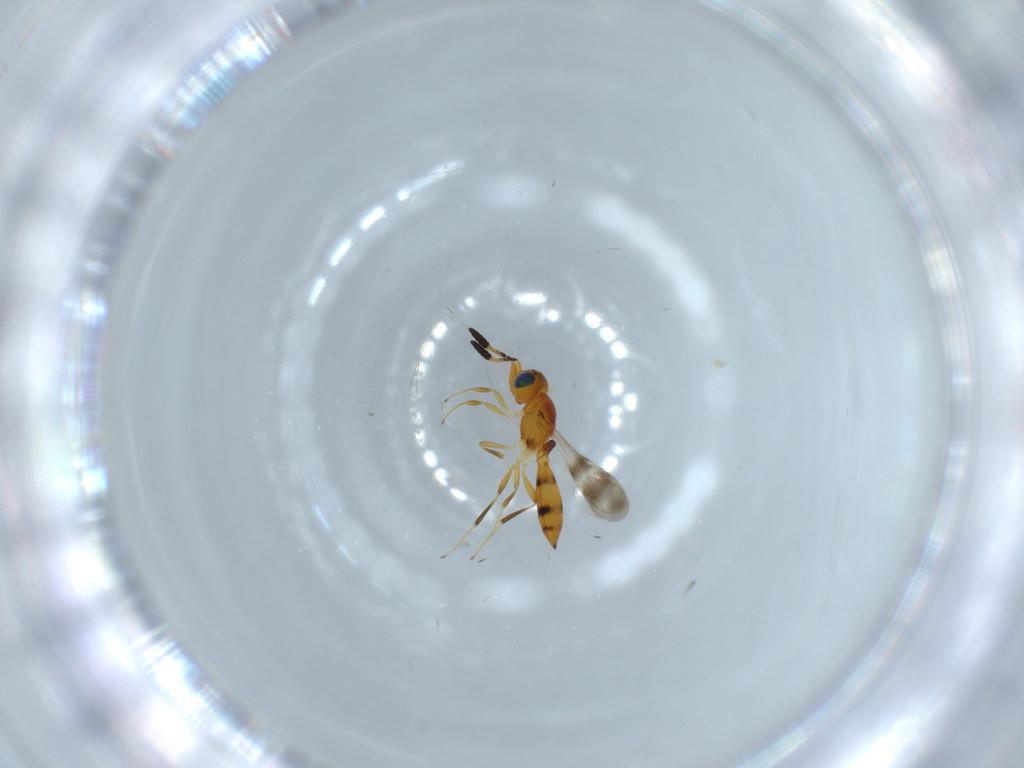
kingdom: Animalia
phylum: Arthropoda
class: Insecta
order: Hymenoptera
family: Scelionidae
